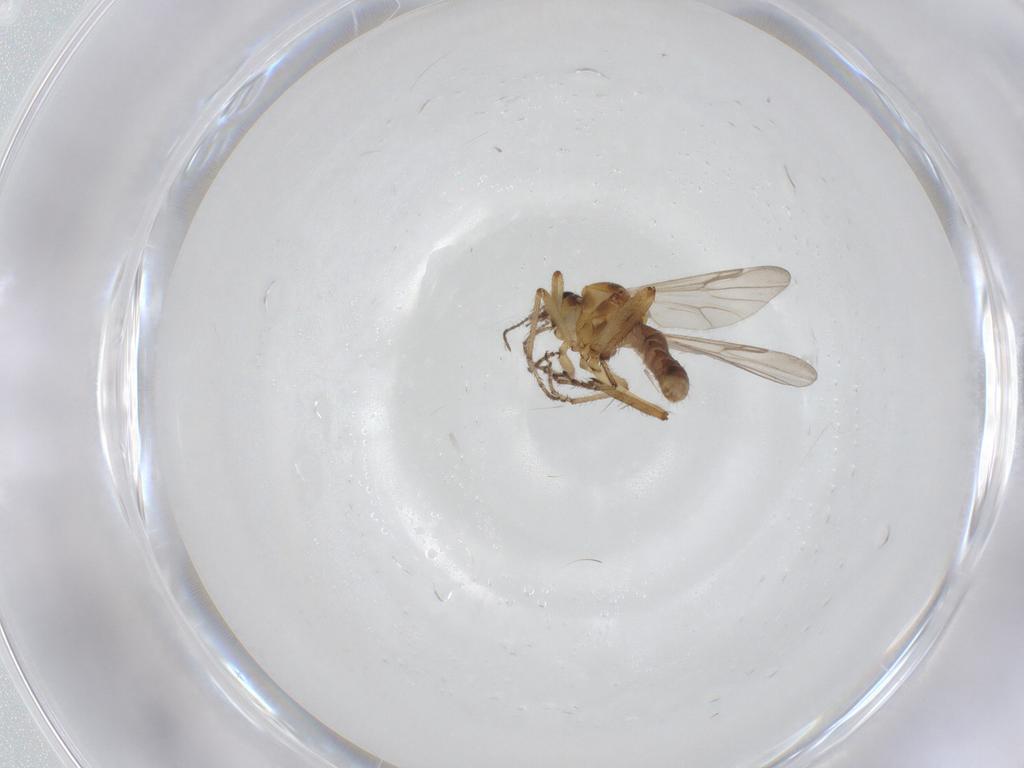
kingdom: Animalia
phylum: Arthropoda
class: Insecta
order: Diptera
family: Ceratopogonidae
